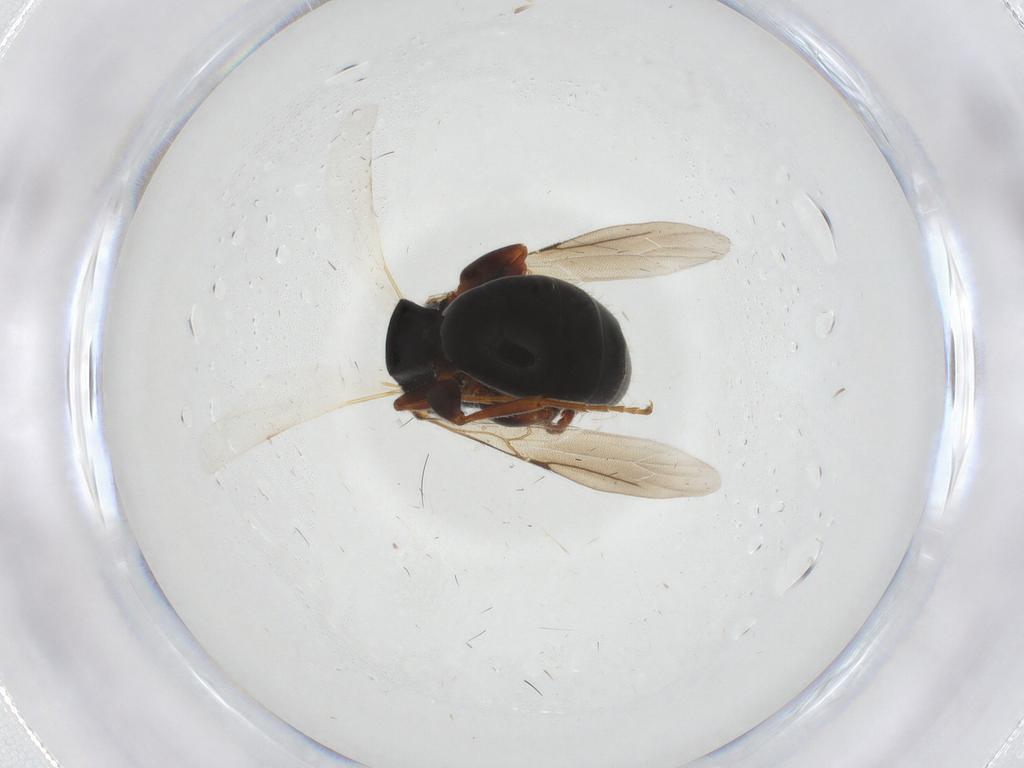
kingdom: Animalia
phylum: Arthropoda
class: Insecta
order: Hymenoptera
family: Bethylidae
